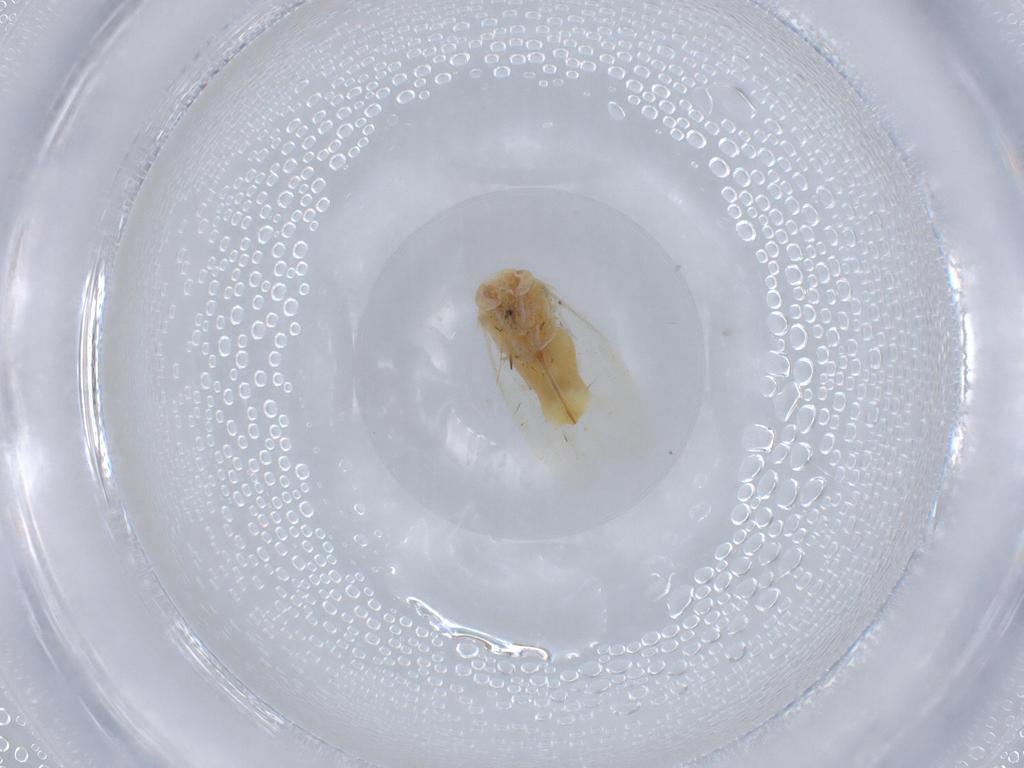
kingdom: Animalia
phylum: Arthropoda
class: Insecta
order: Hemiptera
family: Miridae
